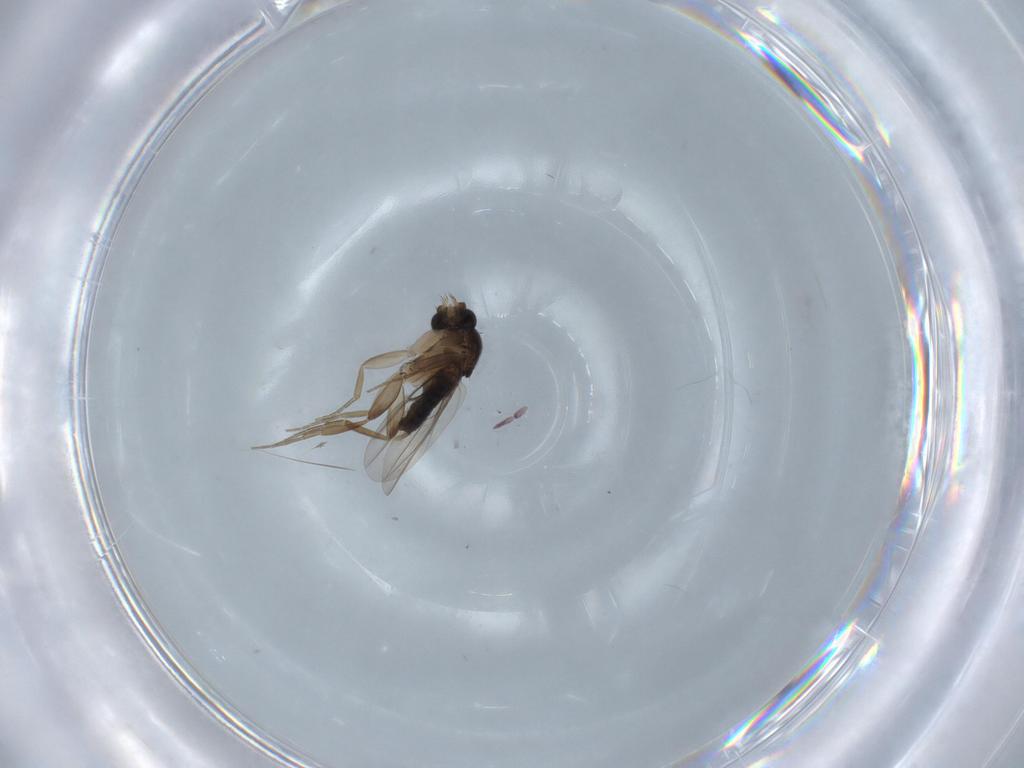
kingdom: Animalia
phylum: Arthropoda
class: Insecta
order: Diptera
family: Phoridae
